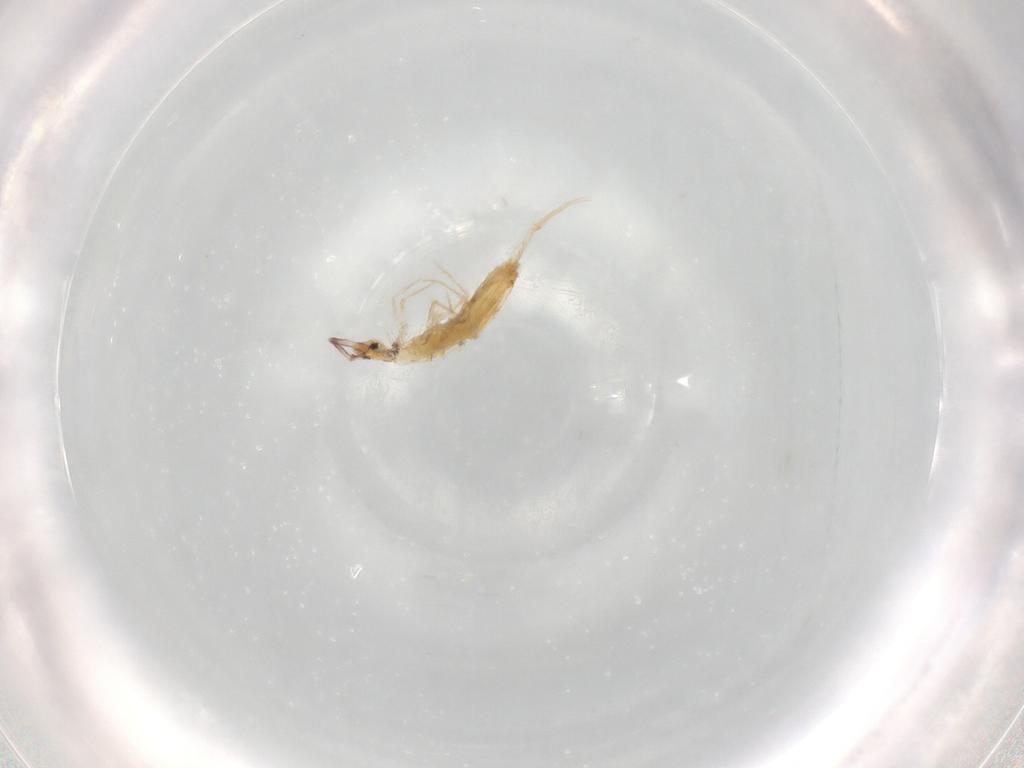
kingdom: Animalia
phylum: Arthropoda
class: Collembola
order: Entomobryomorpha
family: Entomobryidae
